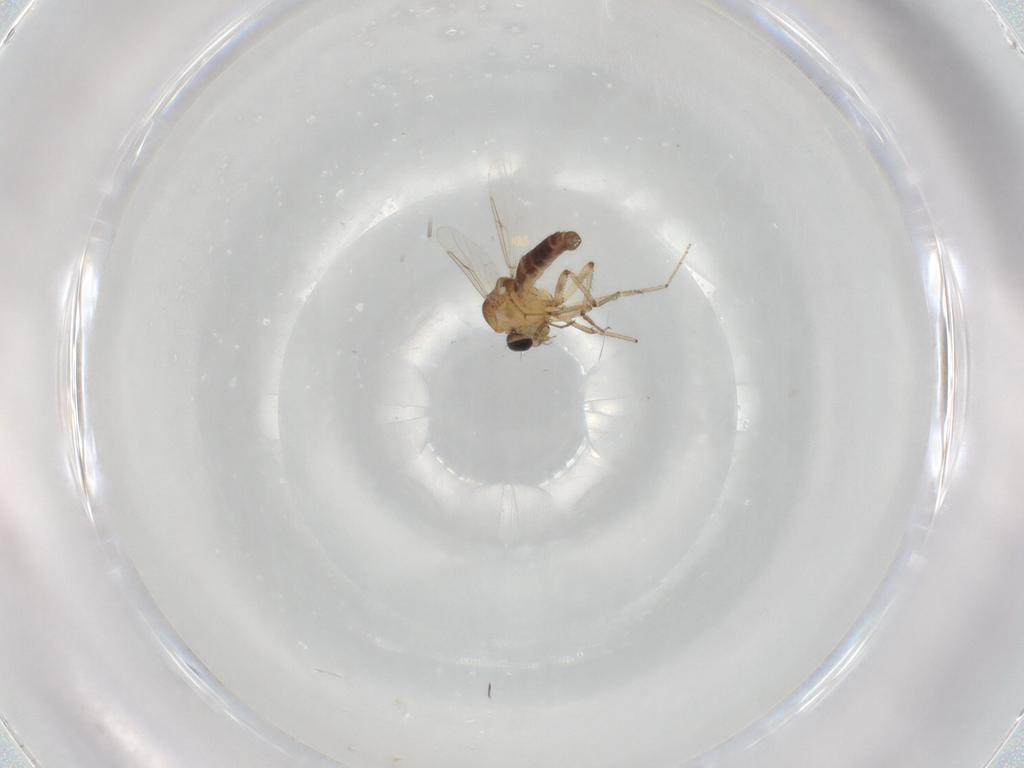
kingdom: Animalia
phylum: Arthropoda
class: Insecta
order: Diptera
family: Ceratopogonidae
